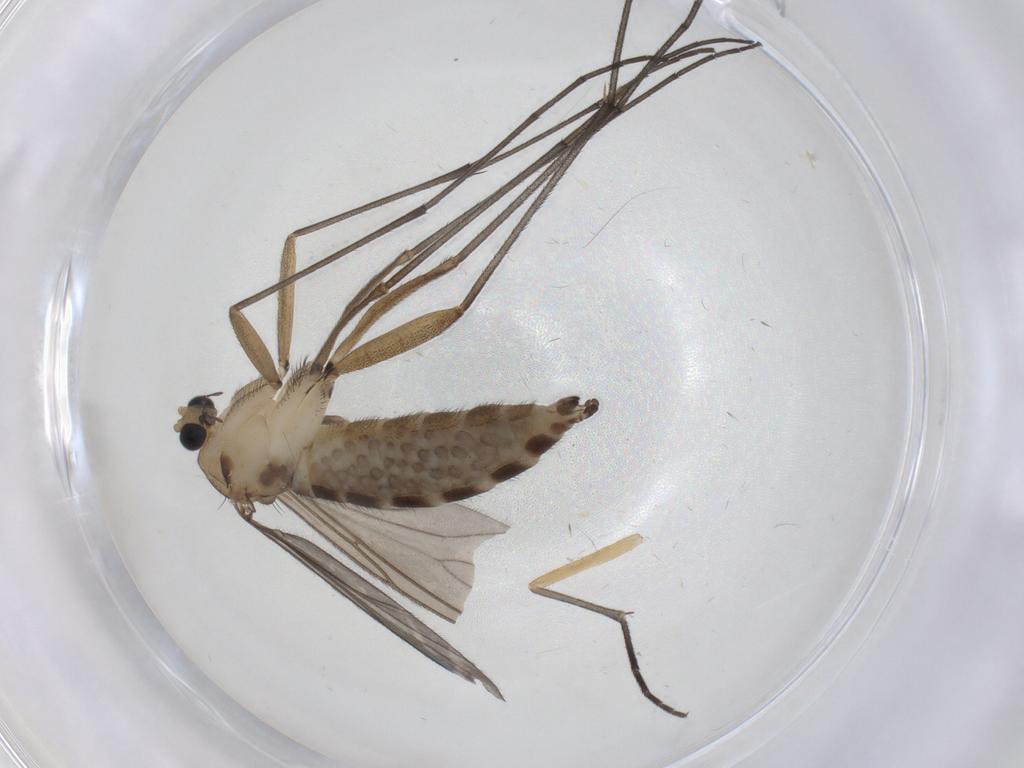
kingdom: Animalia
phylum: Arthropoda
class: Insecta
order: Diptera
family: Sciaridae
